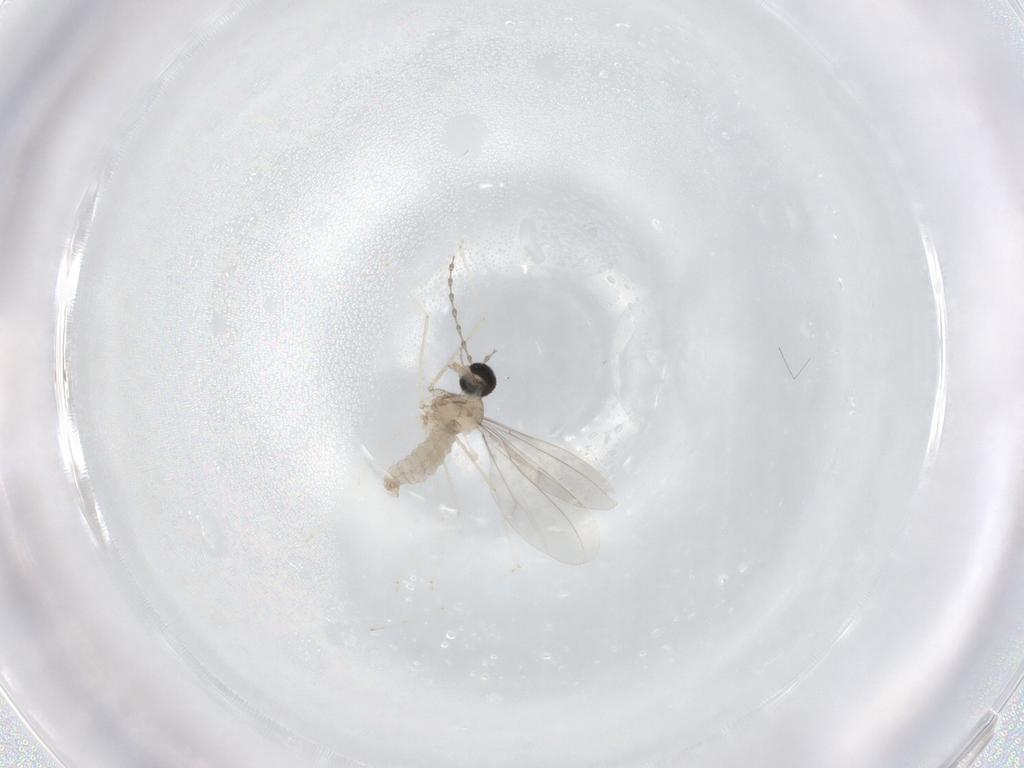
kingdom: Animalia
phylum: Arthropoda
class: Insecta
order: Diptera
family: Cecidomyiidae
